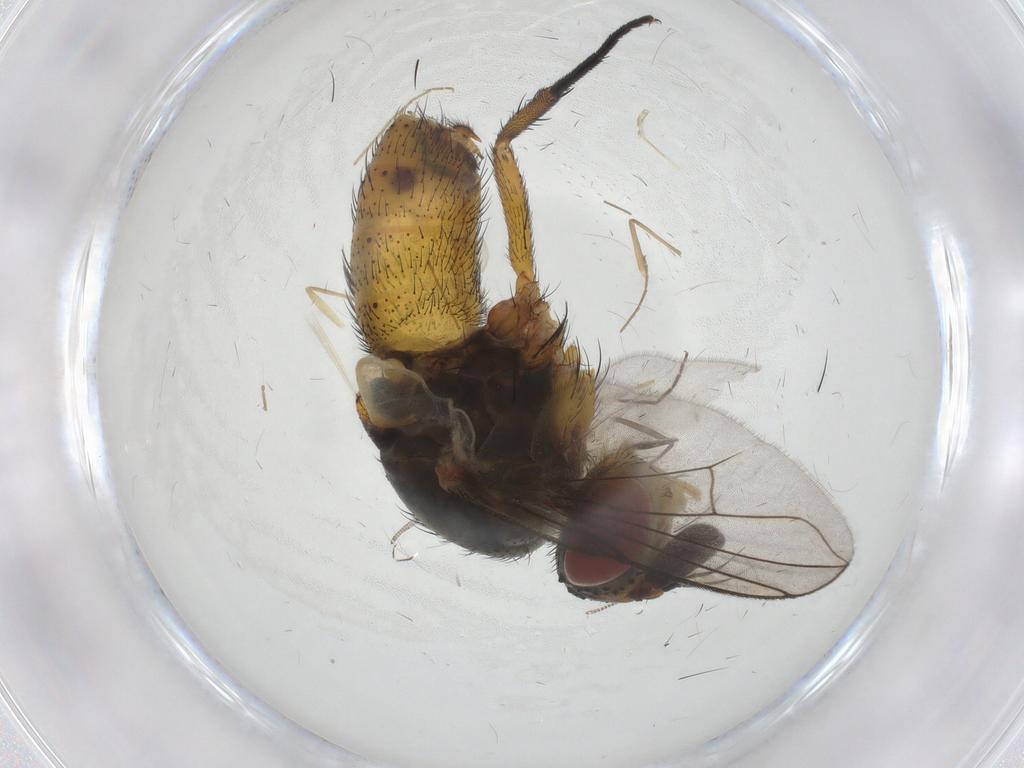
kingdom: Animalia
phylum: Arthropoda
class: Insecta
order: Diptera
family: Tachinidae
